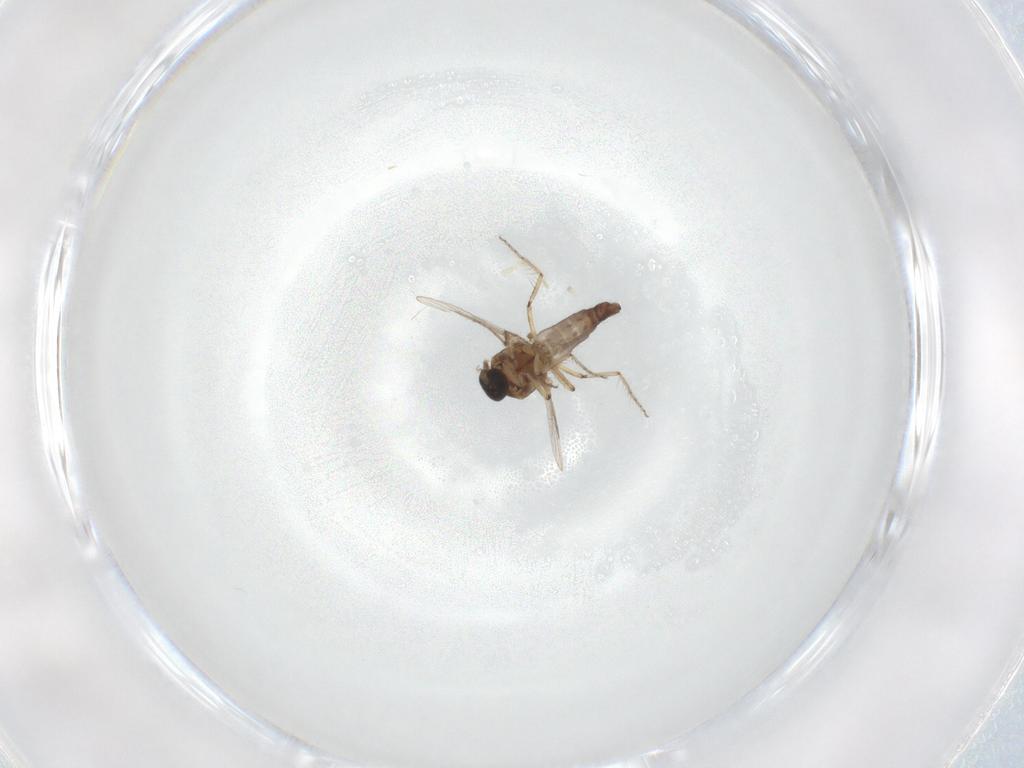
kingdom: Animalia
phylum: Arthropoda
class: Insecta
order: Diptera
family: Ceratopogonidae
